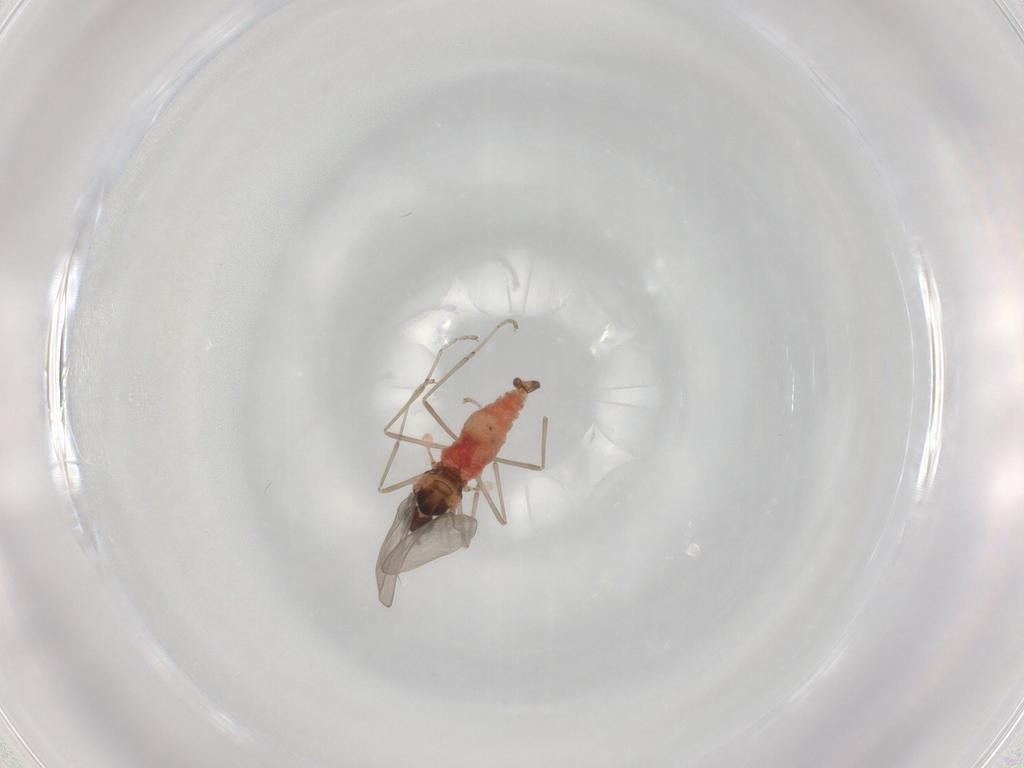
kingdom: Animalia
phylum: Arthropoda
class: Insecta
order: Diptera
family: Cecidomyiidae
